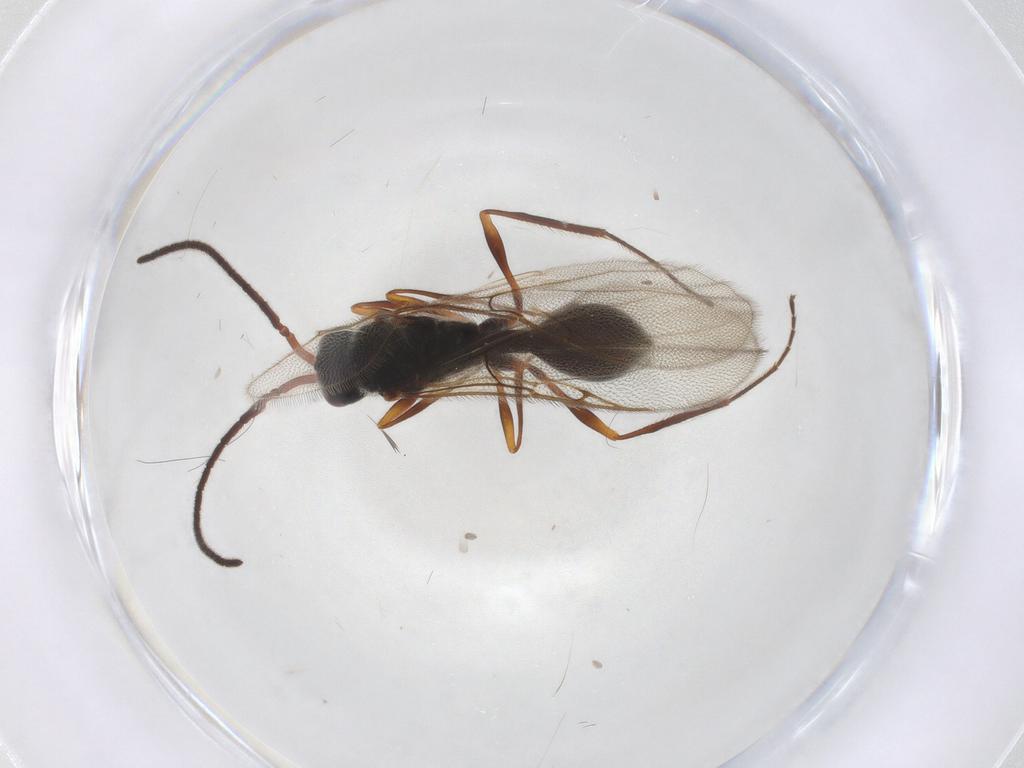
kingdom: Animalia
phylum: Arthropoda
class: Insecta
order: Hymenoptera
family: Diapriidae
